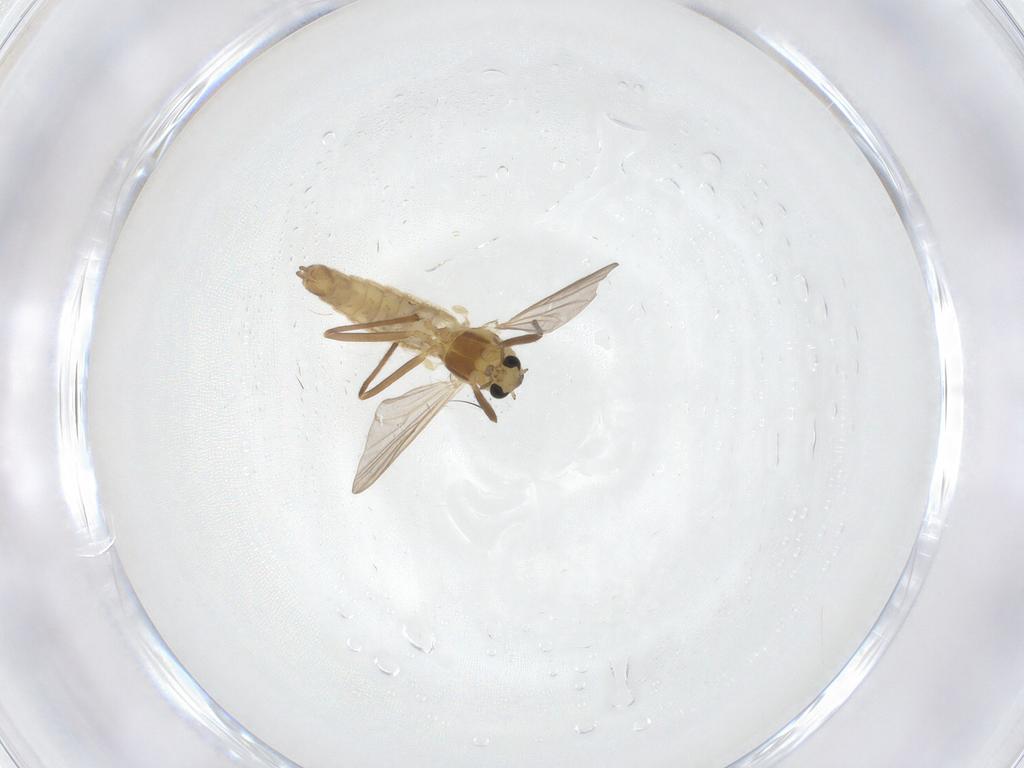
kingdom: Animalia
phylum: Arthropoda
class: Insecta
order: Diptera
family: Chironomidae
